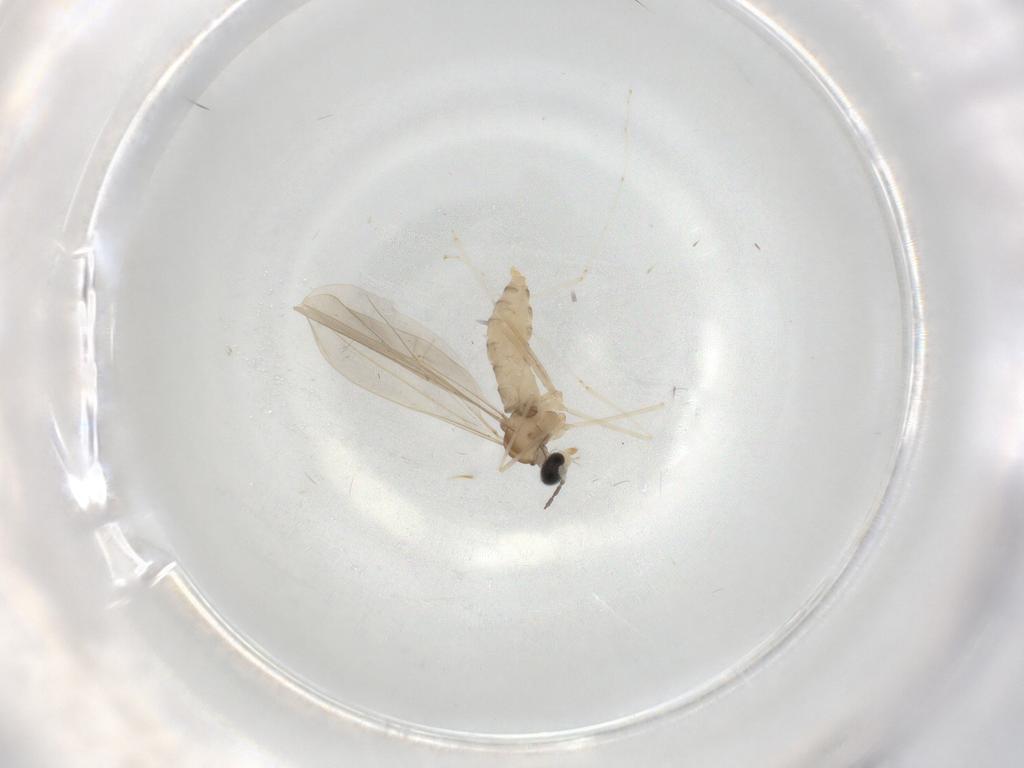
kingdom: Animalia
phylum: Arthropoda
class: Insecta
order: Diptera
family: Cecidomyiidae
